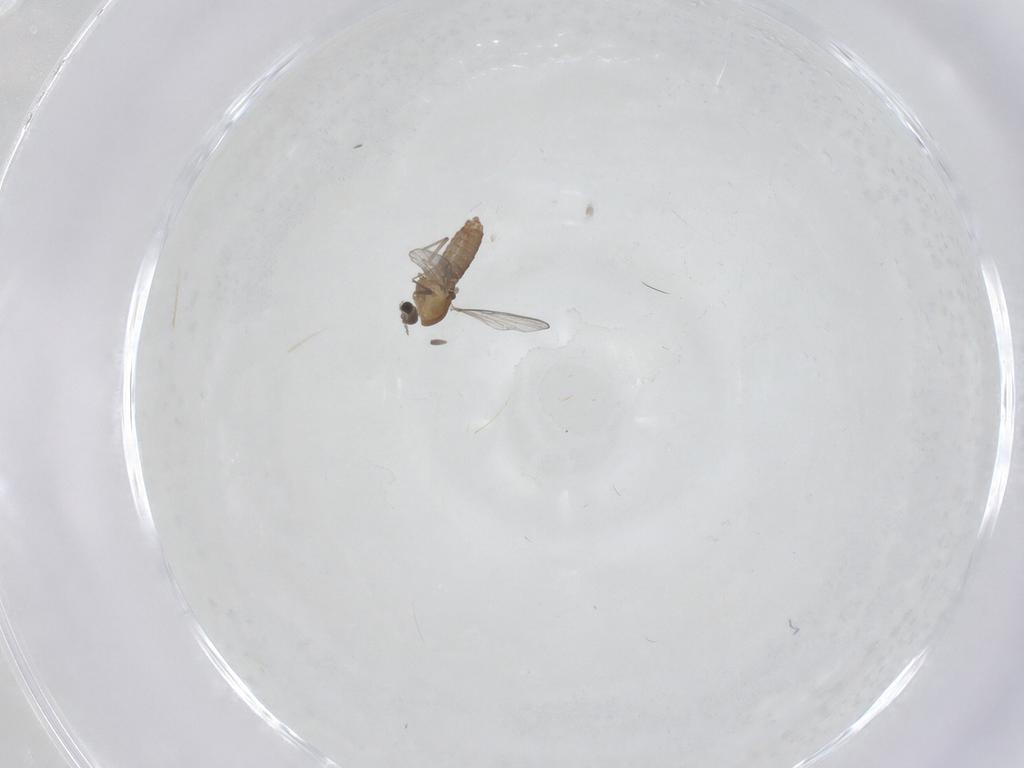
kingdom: Animalia
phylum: Arthropoda
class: Insecta
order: Diptera
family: Chironomidae
